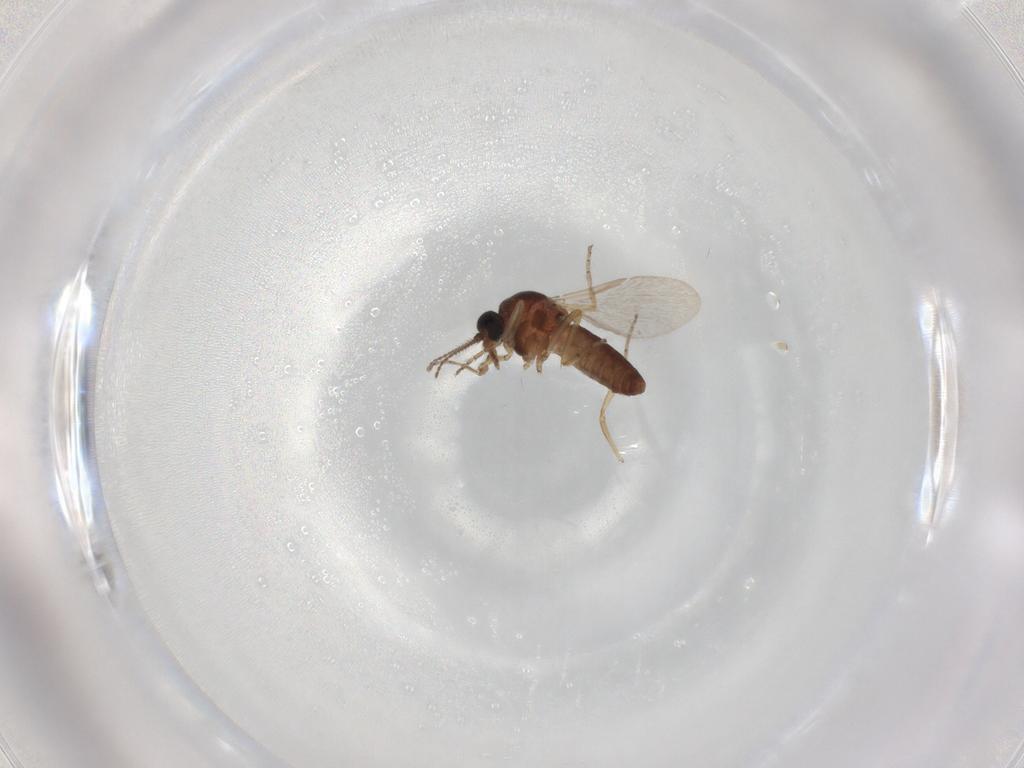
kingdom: Animalia
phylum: Arthropoda
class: Insecta
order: Diptera
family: Ceratopogonidae
